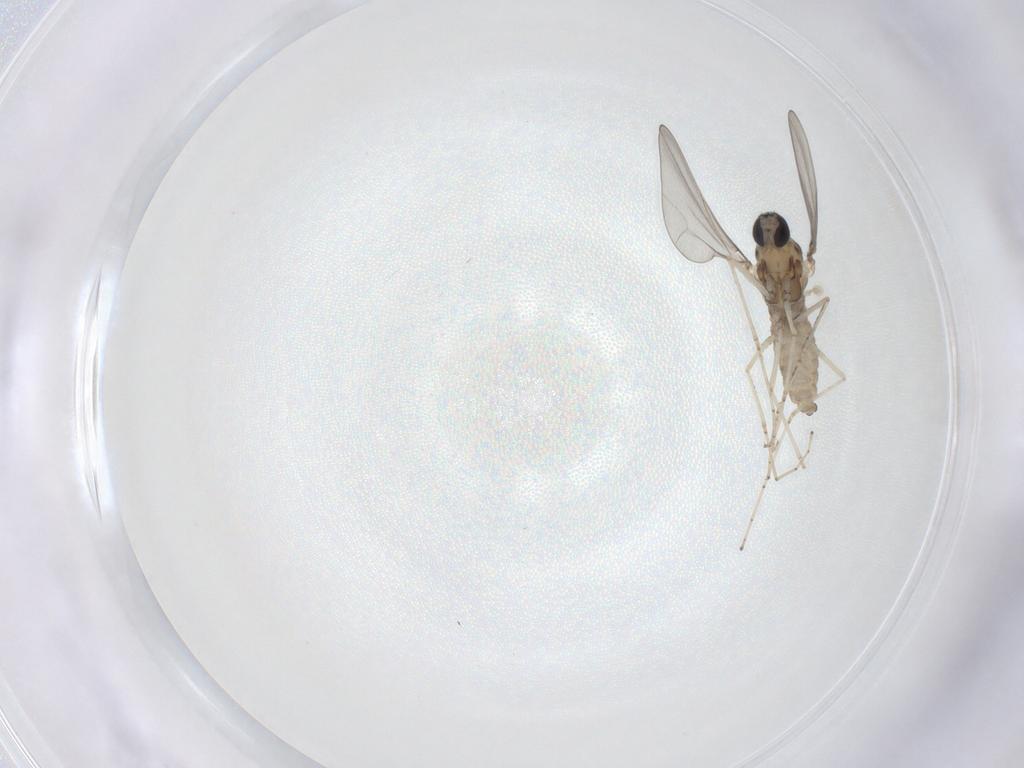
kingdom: Animalia
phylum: Arthropoda
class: Insecta
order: Diptera
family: Cecidomyiidae
